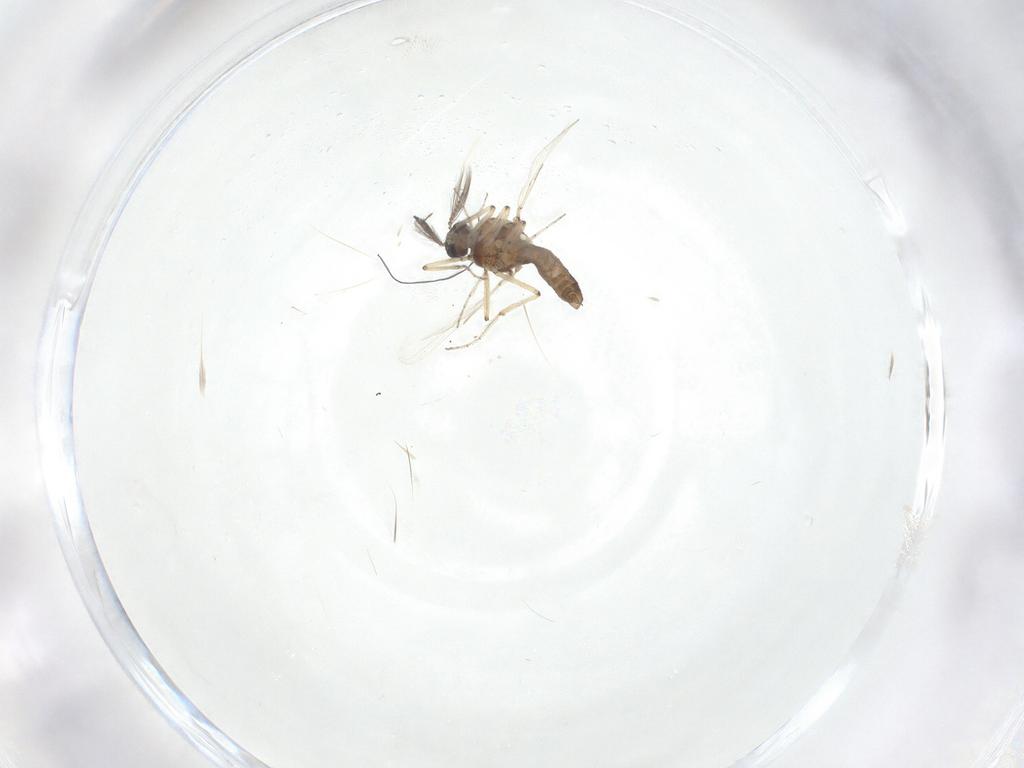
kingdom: Animalia
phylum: Arthropoda
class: Insecta
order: Diptera
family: Ceratopogonidae
